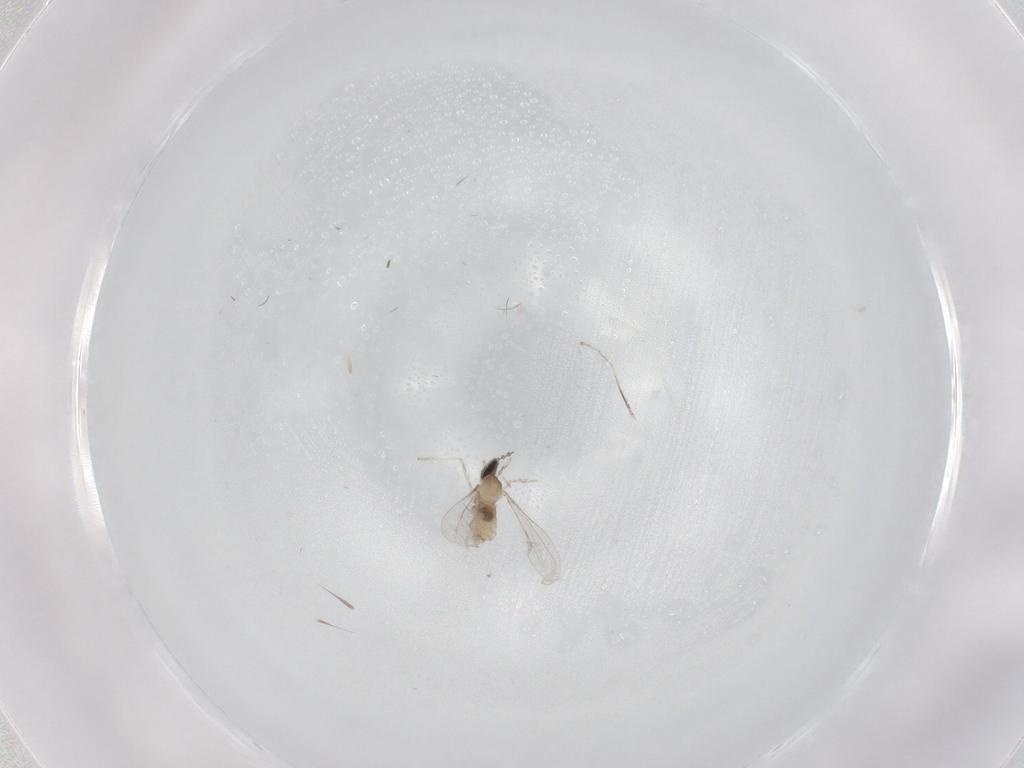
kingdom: Animalia
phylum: Arthropoda
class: Insecta
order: Diptera
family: Cecidomyiidae
